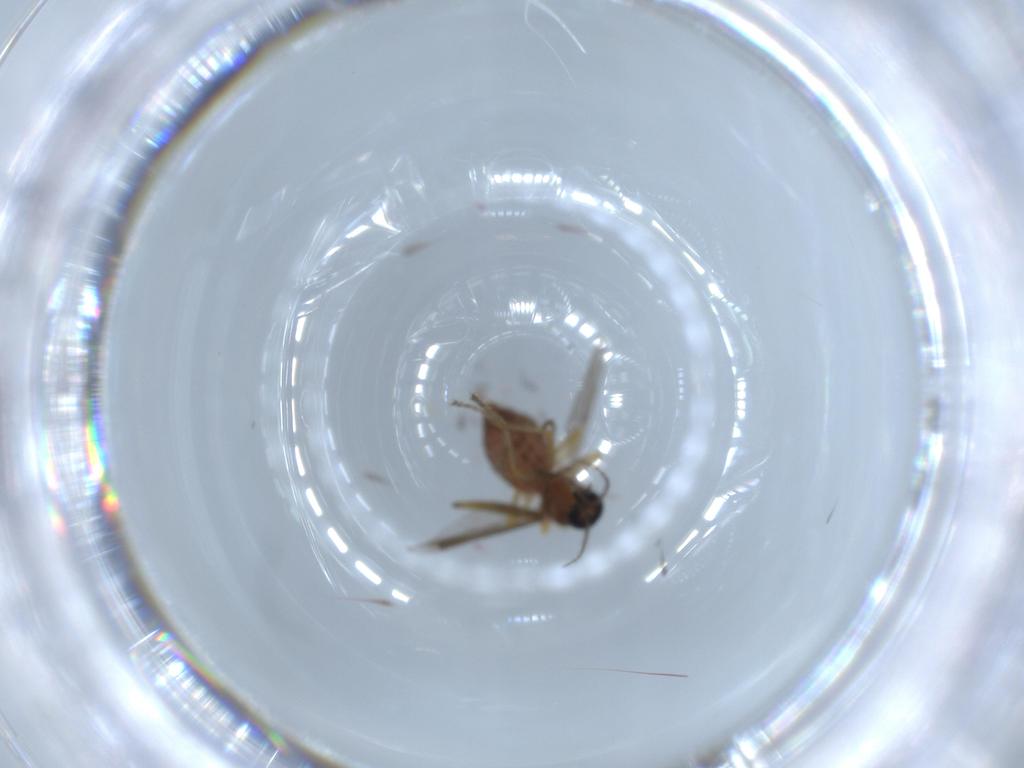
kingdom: Animalia
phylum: Arthropoda
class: Insecta
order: Diptera
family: Ceratopogonidae
